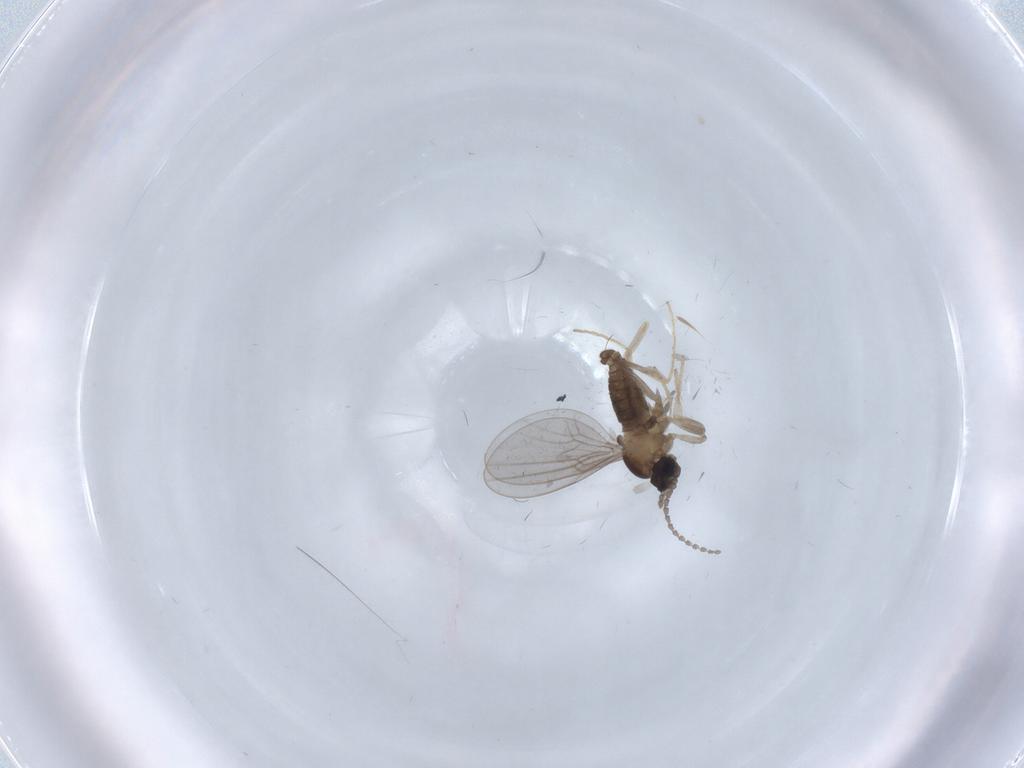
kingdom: Animalia
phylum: Arthropoda
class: Insecta
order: Diptera
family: Cecidomyiidae
